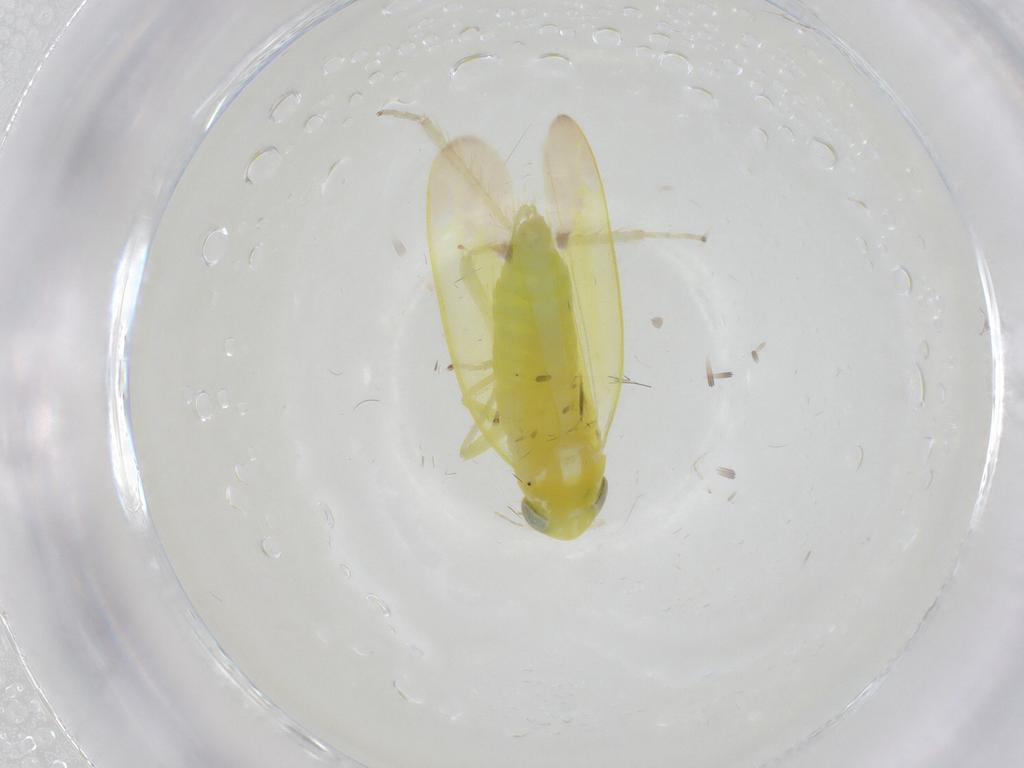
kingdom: Animalia
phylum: Arthropoda
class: Insecta
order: Hemiptera
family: Cicadellidae
